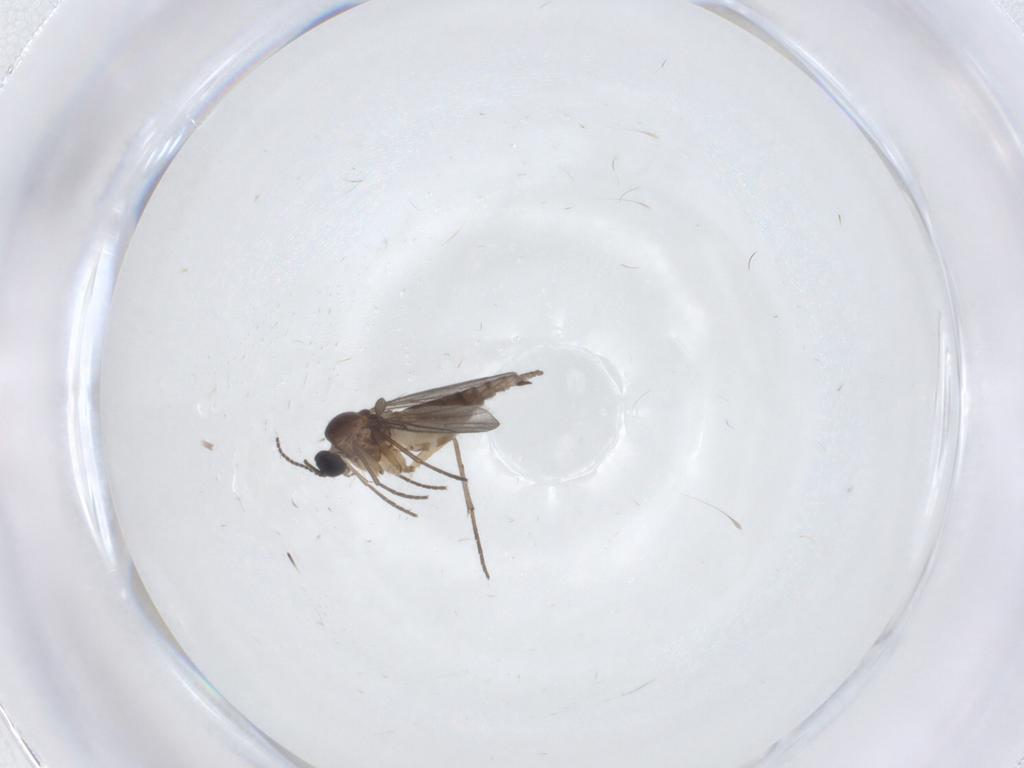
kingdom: Animalia
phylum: Arthropoda
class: Insecta
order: Diptera
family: Sciaridae
